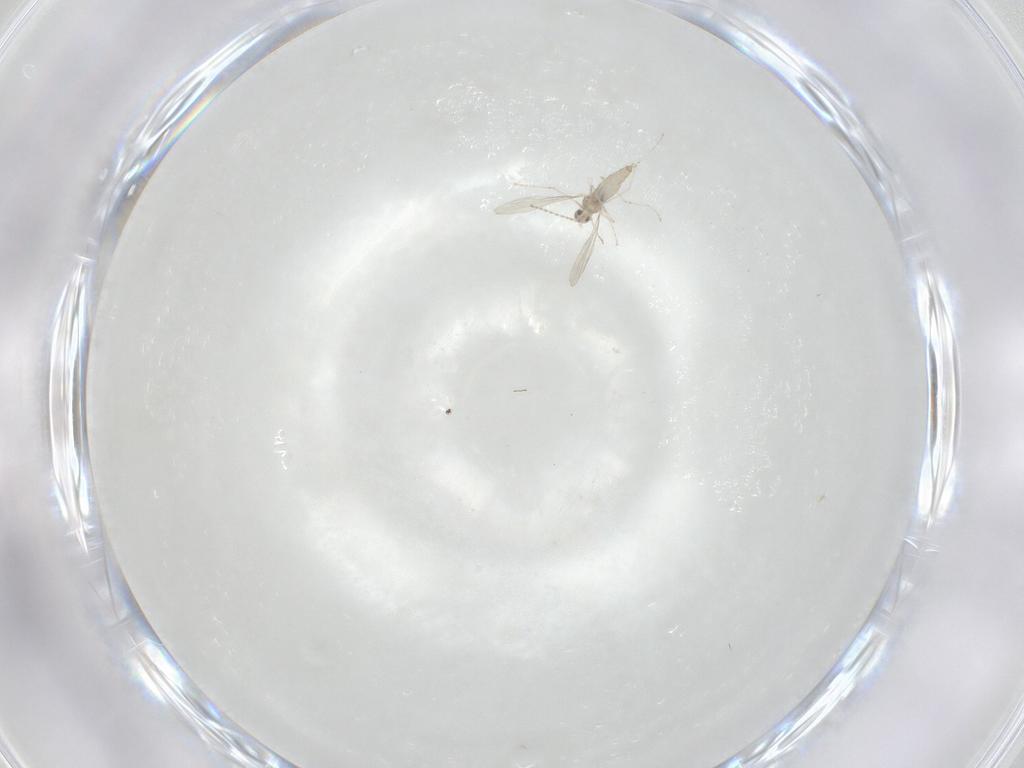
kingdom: Animalia
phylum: Arthropoda
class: Insecta
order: Diptera
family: Cecidomyiidae
